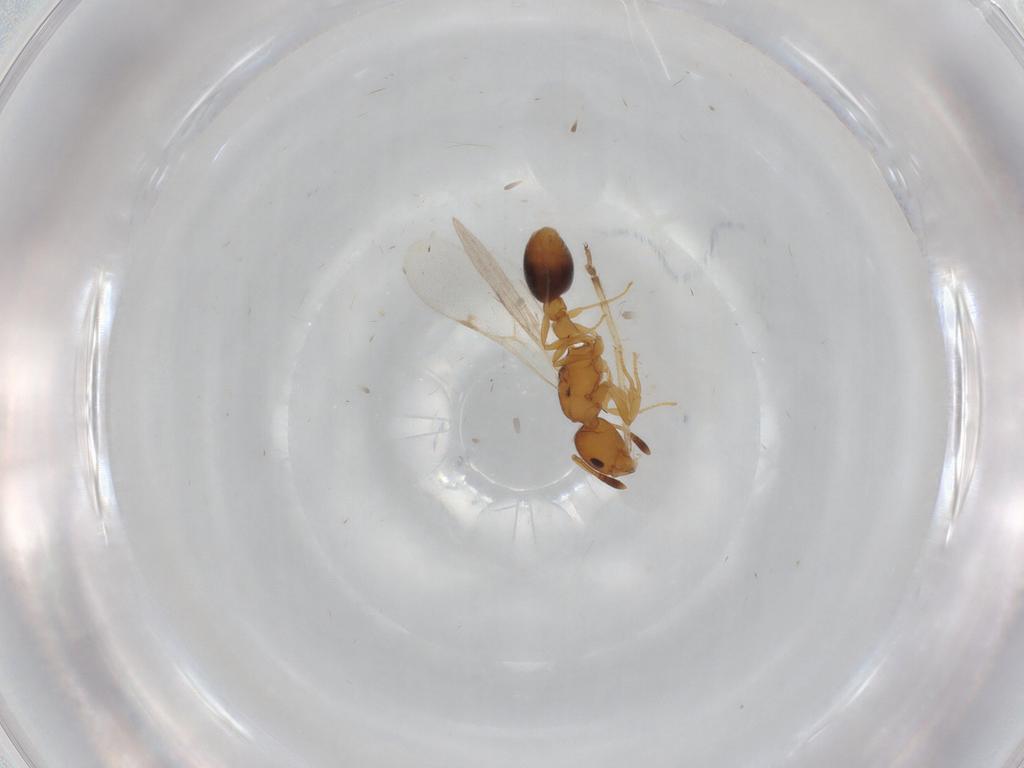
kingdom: Animalia
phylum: Arthropoda
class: Insecta
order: Hymenoptera
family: Formicidae
